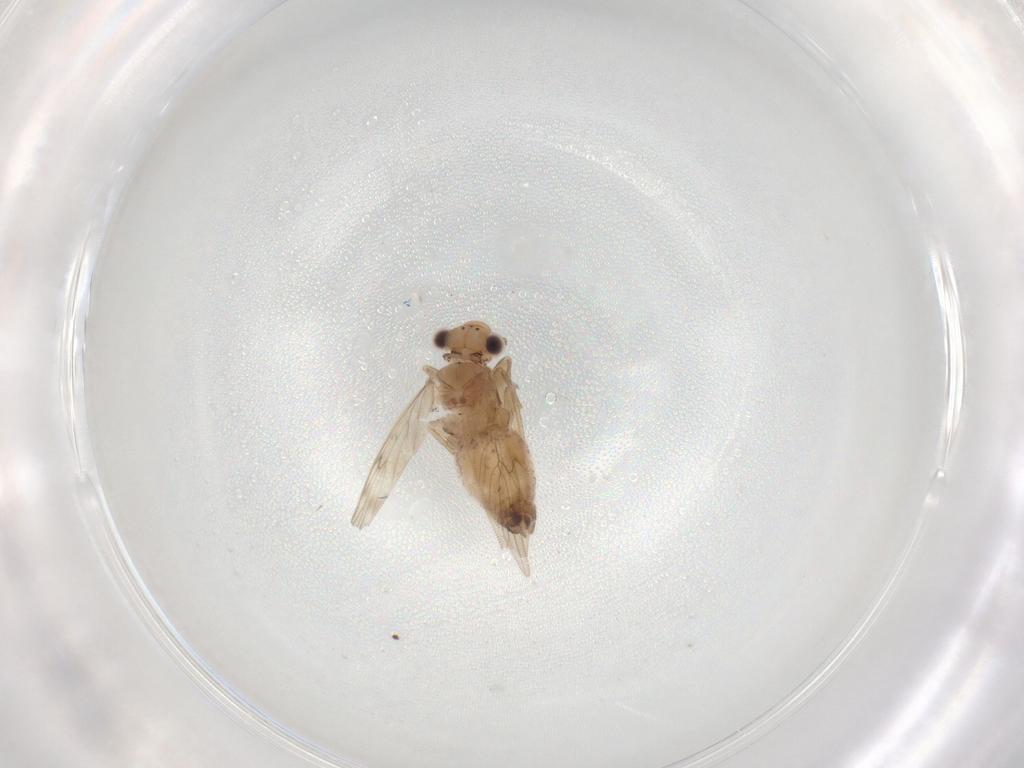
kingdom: Animalia
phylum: Arthropoda
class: Insecta
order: Psocodea
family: Lepidopsocidae
